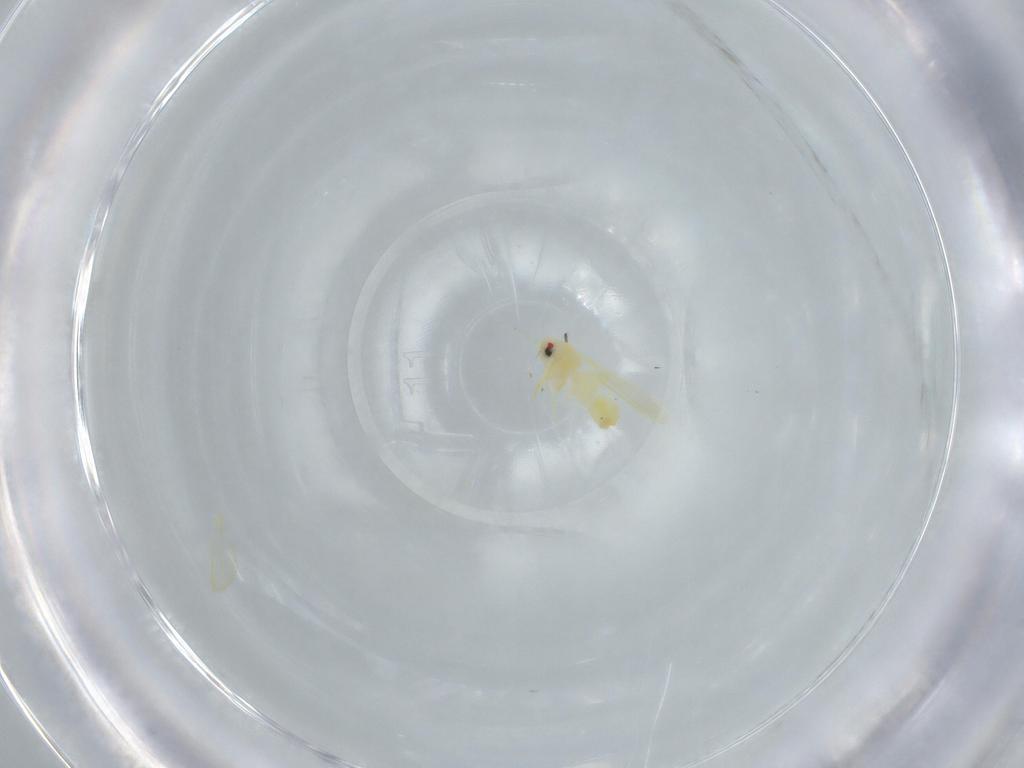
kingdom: Animalia
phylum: Arthropoda
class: Insecta
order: Hemiptera
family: Aleyrodidae
